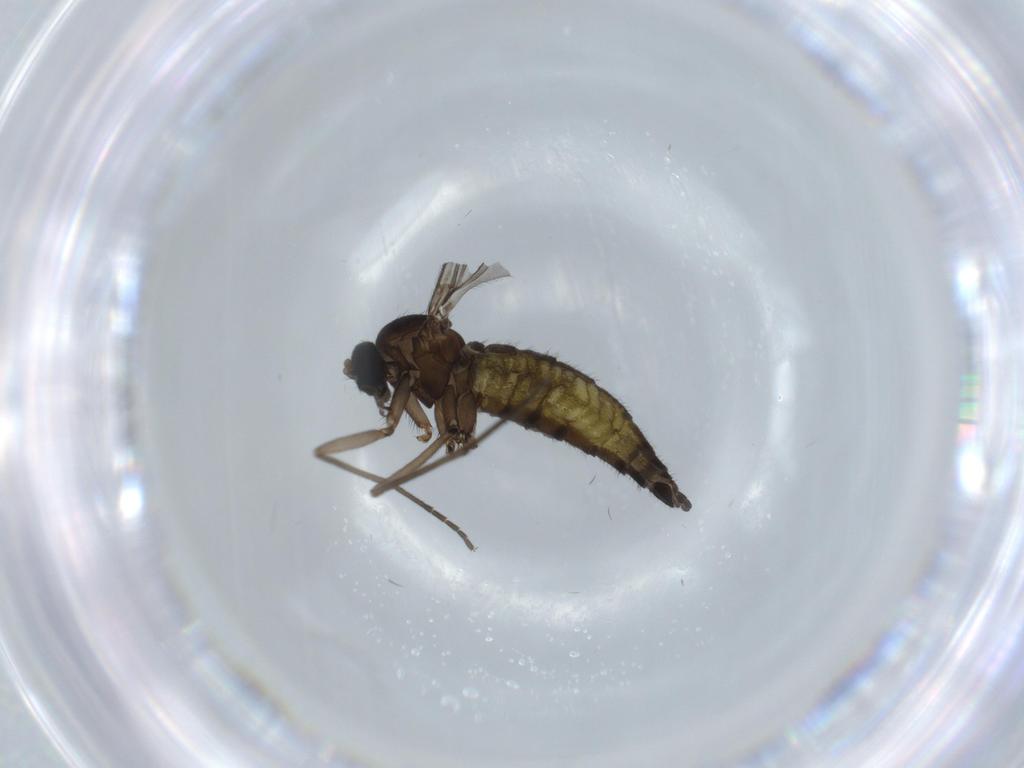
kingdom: Animalia
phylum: Arthropoda
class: Insecta
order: Diptera
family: Sciaridae
